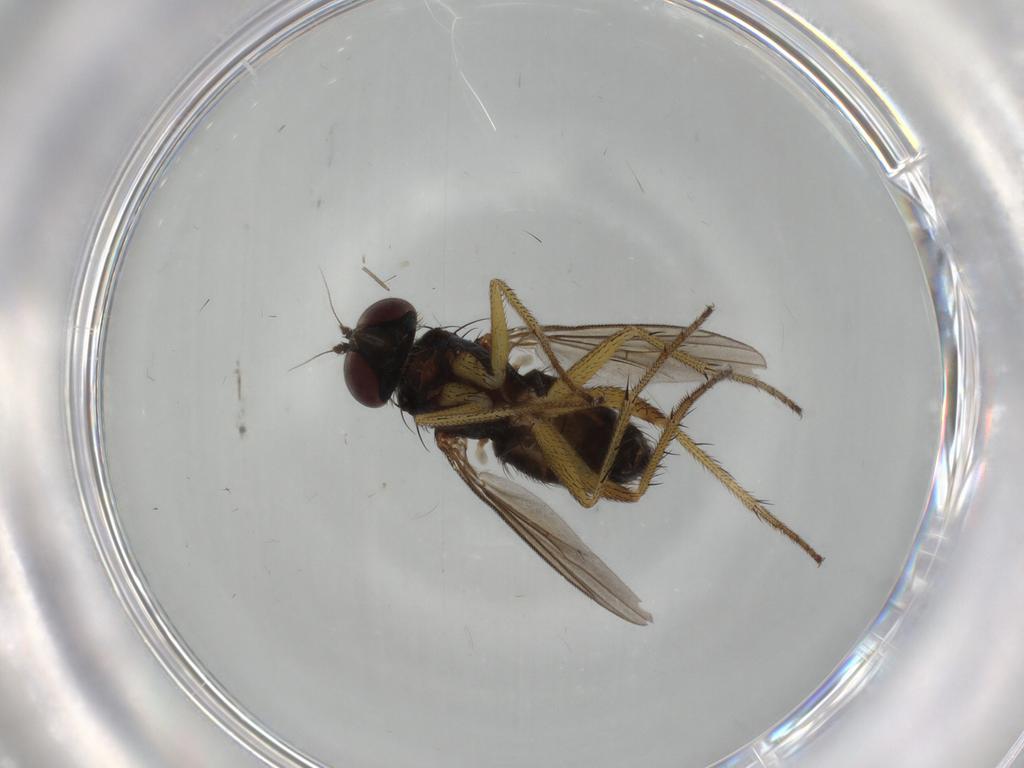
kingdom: Animalia
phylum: Arthropoda
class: Insecta
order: Diptera
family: Dolichopodidae
